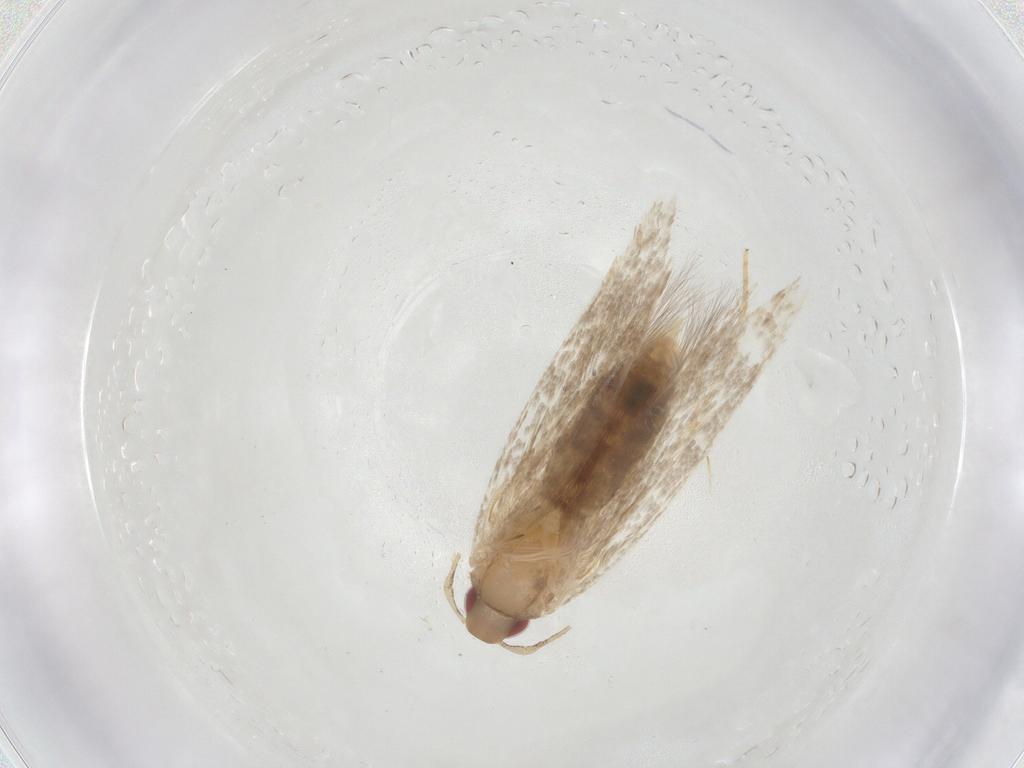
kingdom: Animalia
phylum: Arthropoda
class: Insecta
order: Lepidoptera
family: Cosmopterigidae
